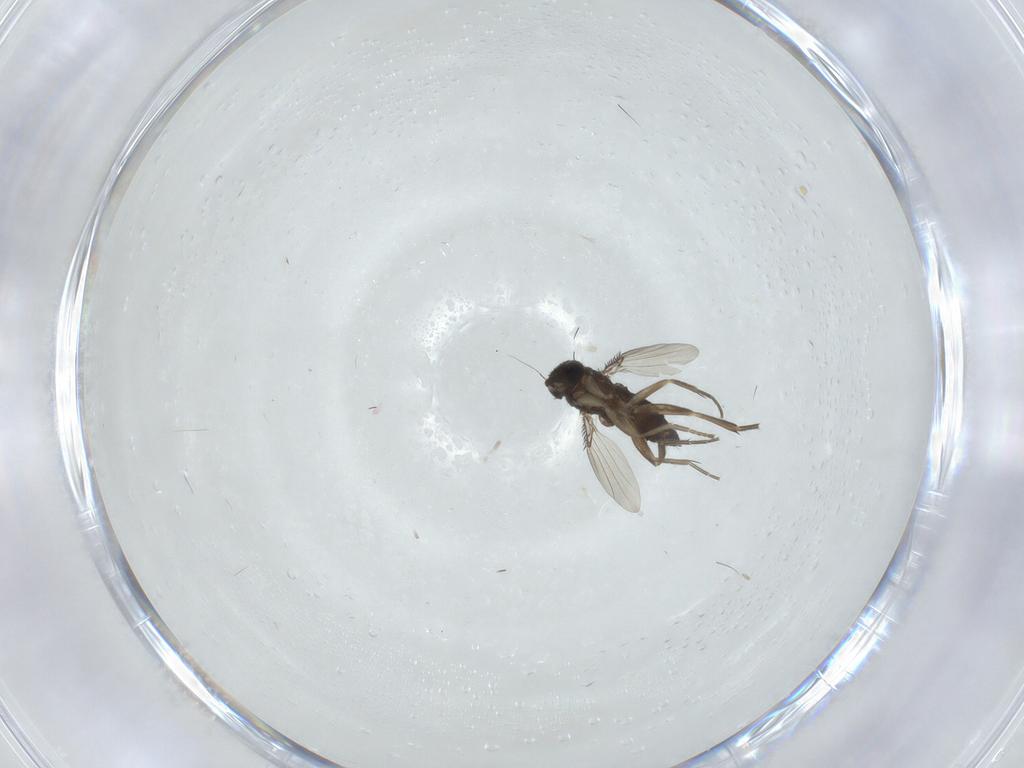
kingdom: Animalia
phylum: Arthropoda
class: Insecta
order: Diptera
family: Phoridae
